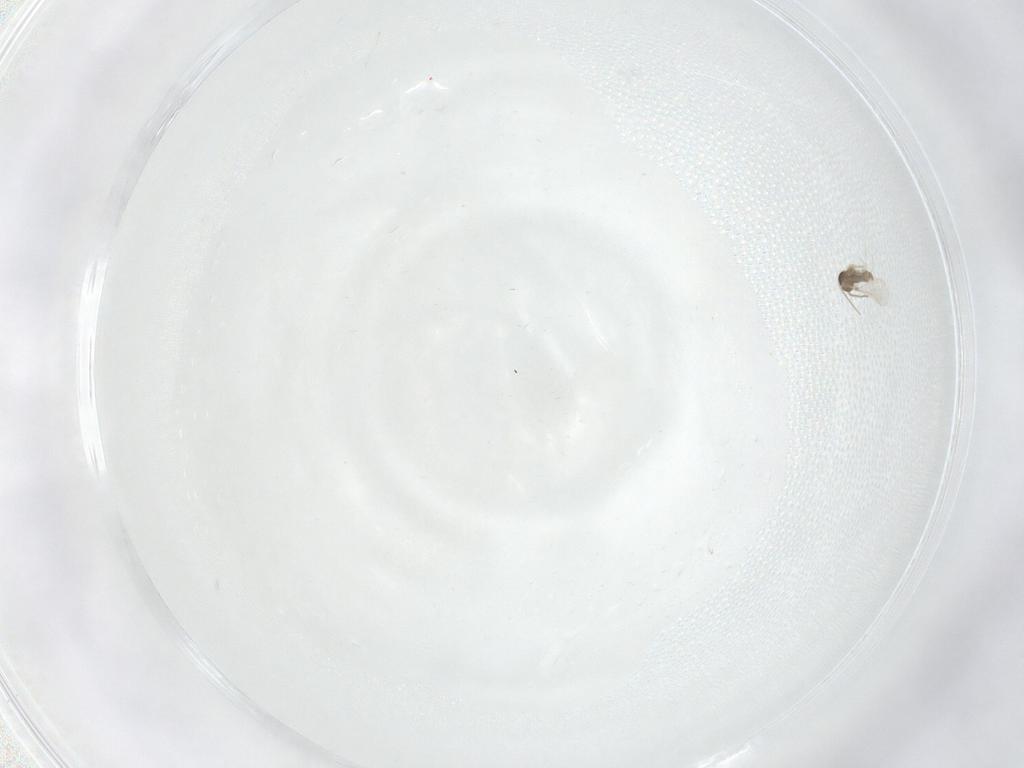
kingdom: Animalia
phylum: Arthropoda
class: Insecta
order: Diptera
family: Cecidomyiidae
